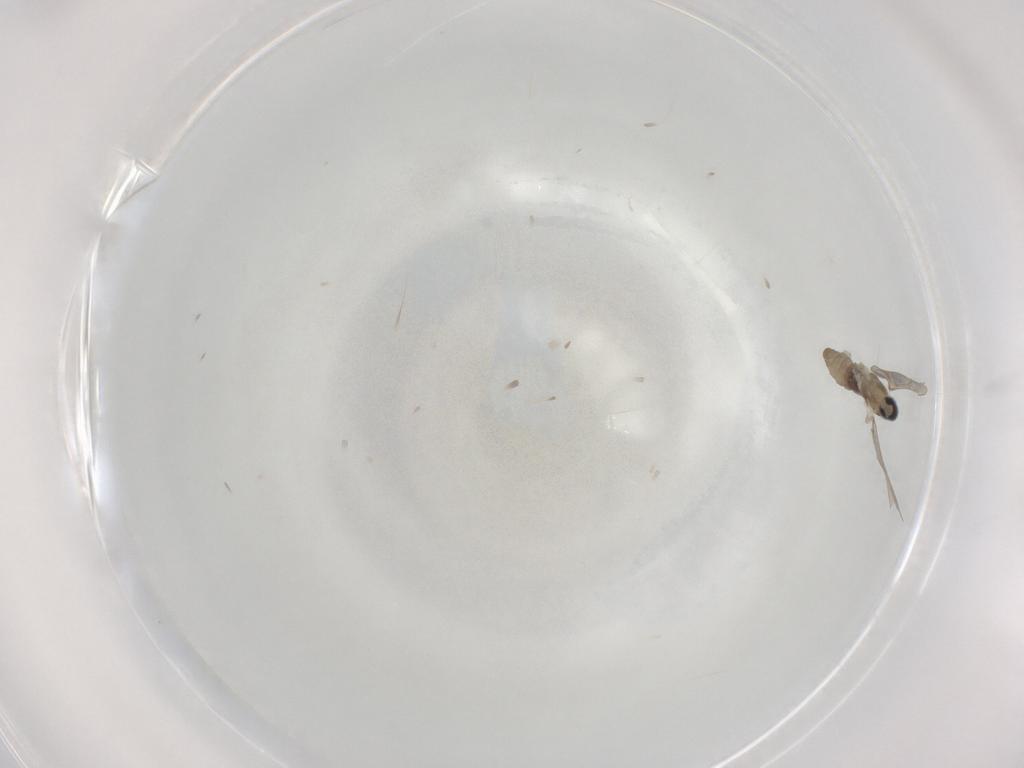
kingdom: Animalia
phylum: Arthropoda
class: Insecta
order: Diptera
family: Cecidomyiidae
